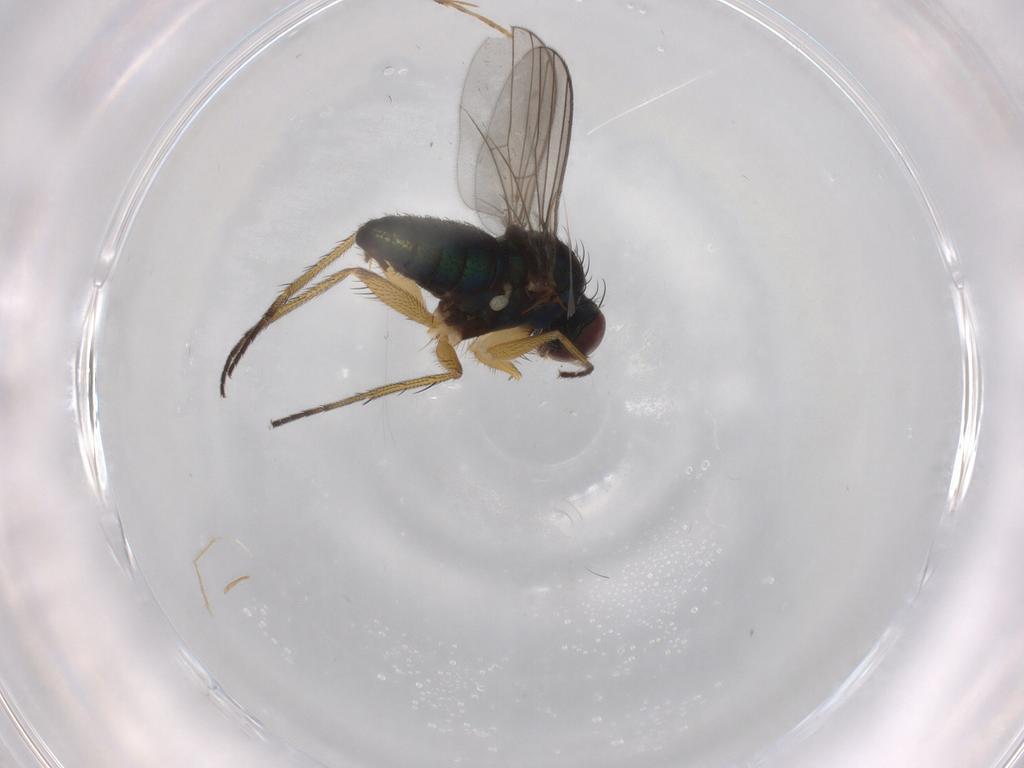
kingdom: Animalia
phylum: Arthropoda
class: Insecta
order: Diptera
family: Dolichopodidae
